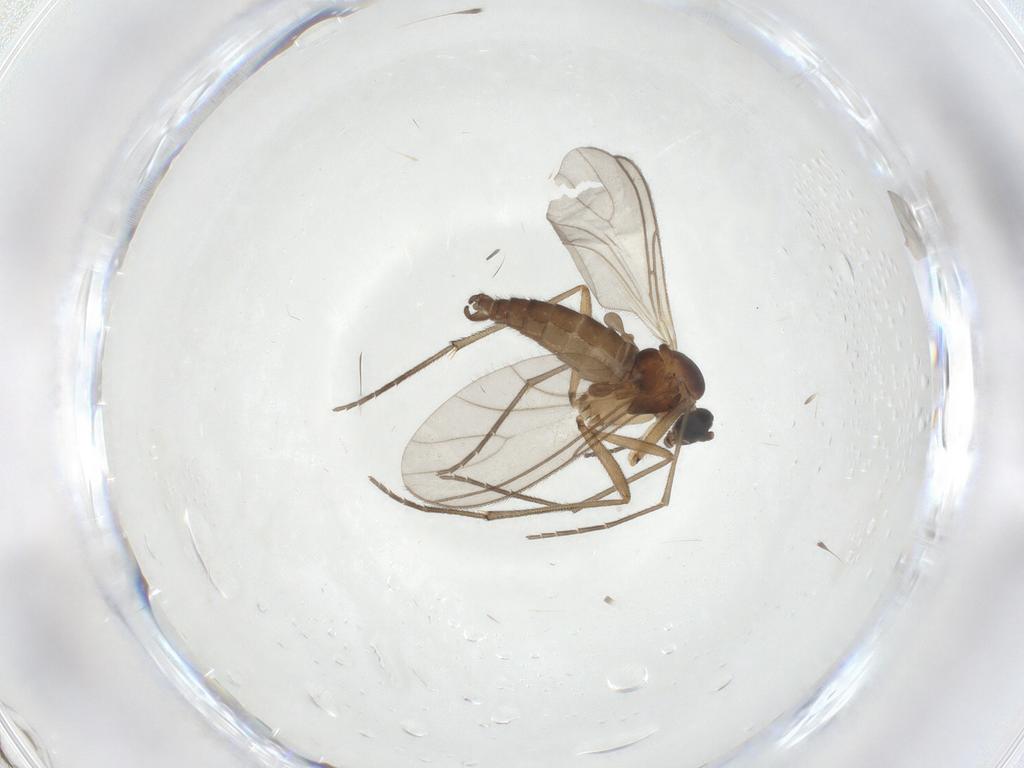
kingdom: Animalia
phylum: Arthropoda
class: Insecta
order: Diptera
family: Sciaridae
